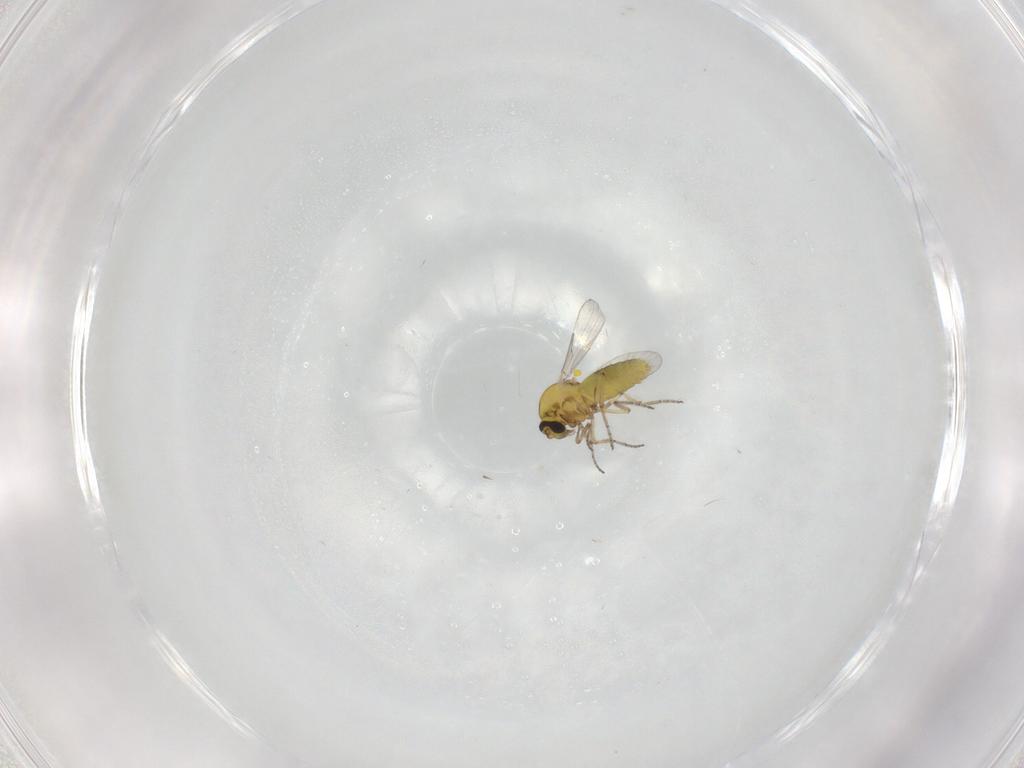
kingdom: Animalia
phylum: Arthropoda
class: Insecta
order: Diptera
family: Ceratopogonidae
